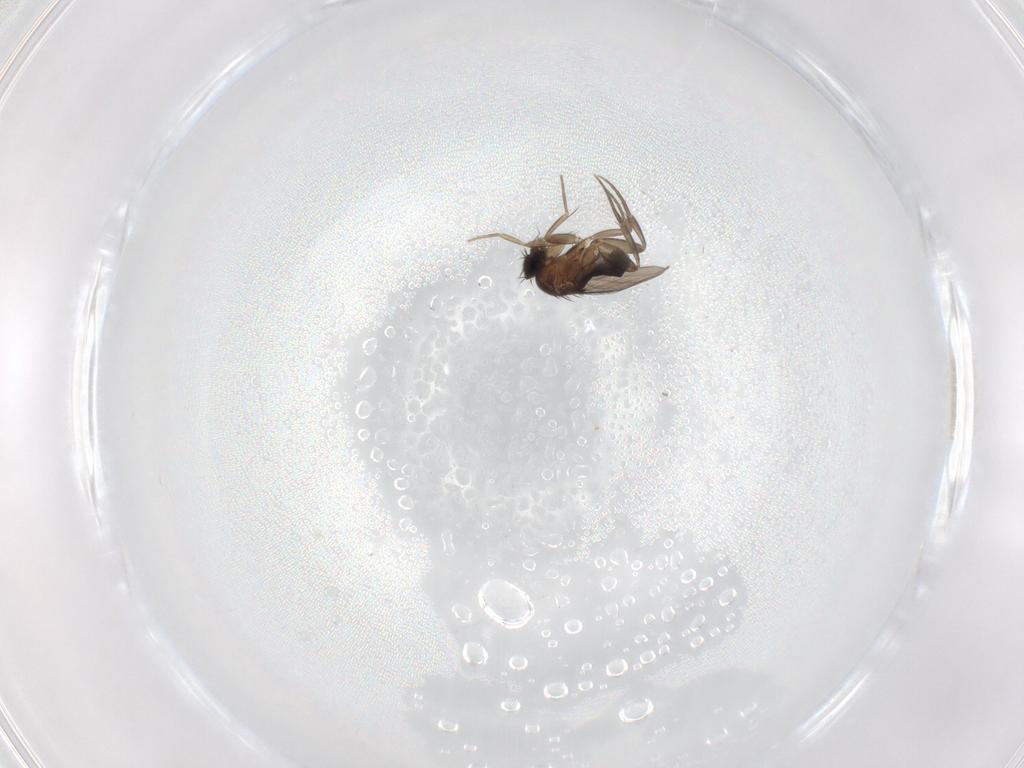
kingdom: Animalia
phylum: Arthropoda
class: Insecta
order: Diptera
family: Phoridae
